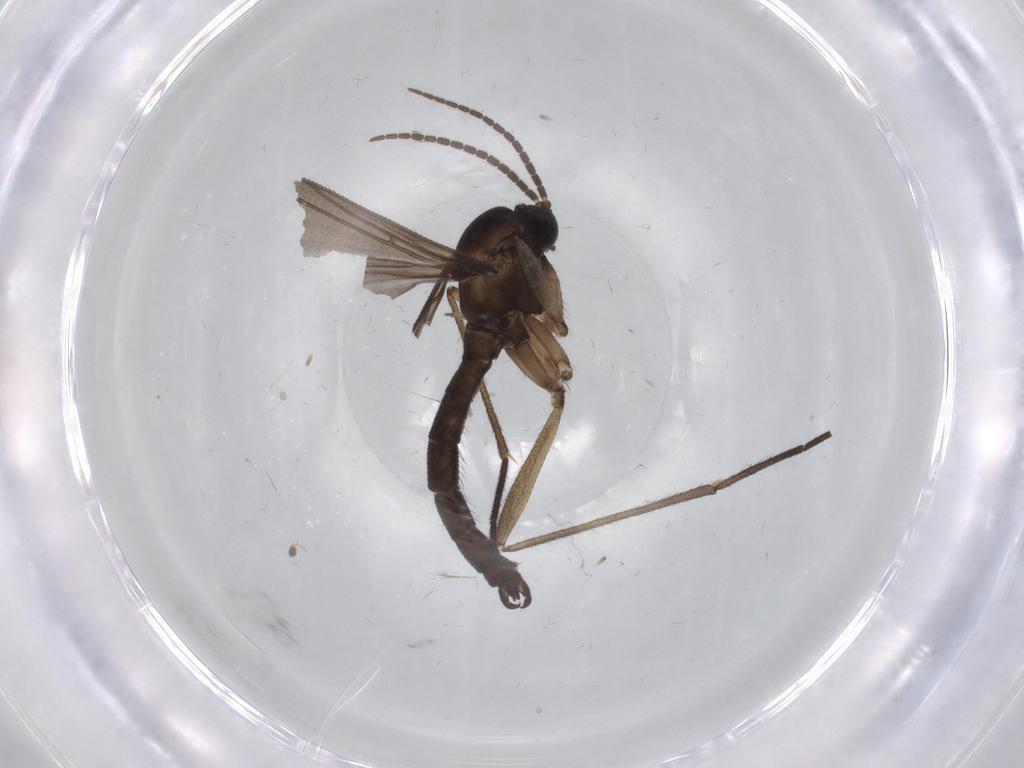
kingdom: Animalia
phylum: Arthropoda
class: Insecta
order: Diptera
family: Sciaridae
